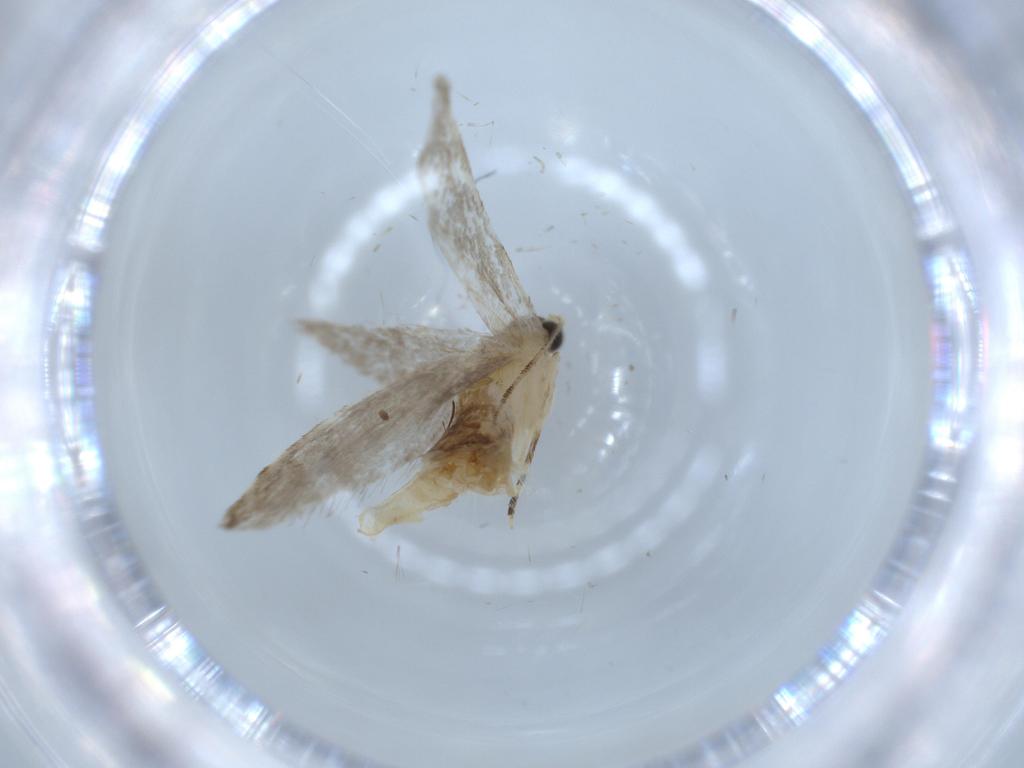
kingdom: Animalia
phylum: Arthropoda
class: Insecta
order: Lepidoptera
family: Tineidae
